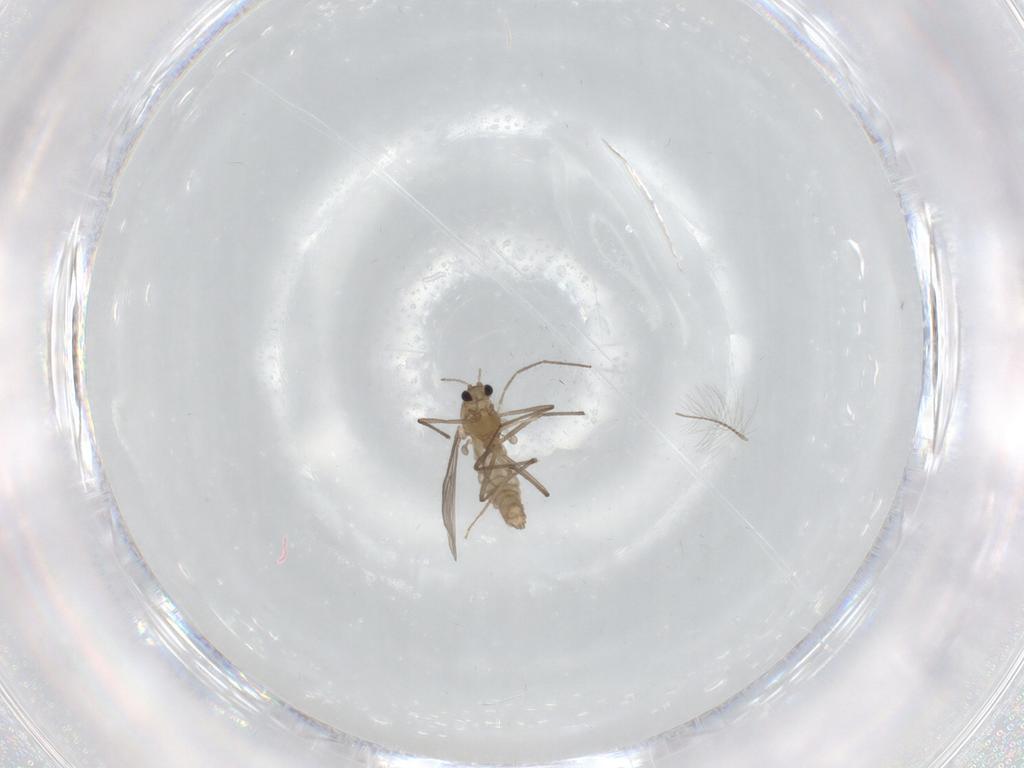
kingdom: Animalia
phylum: Arthropoda
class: Insecta
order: Diptera
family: Chironomidae
